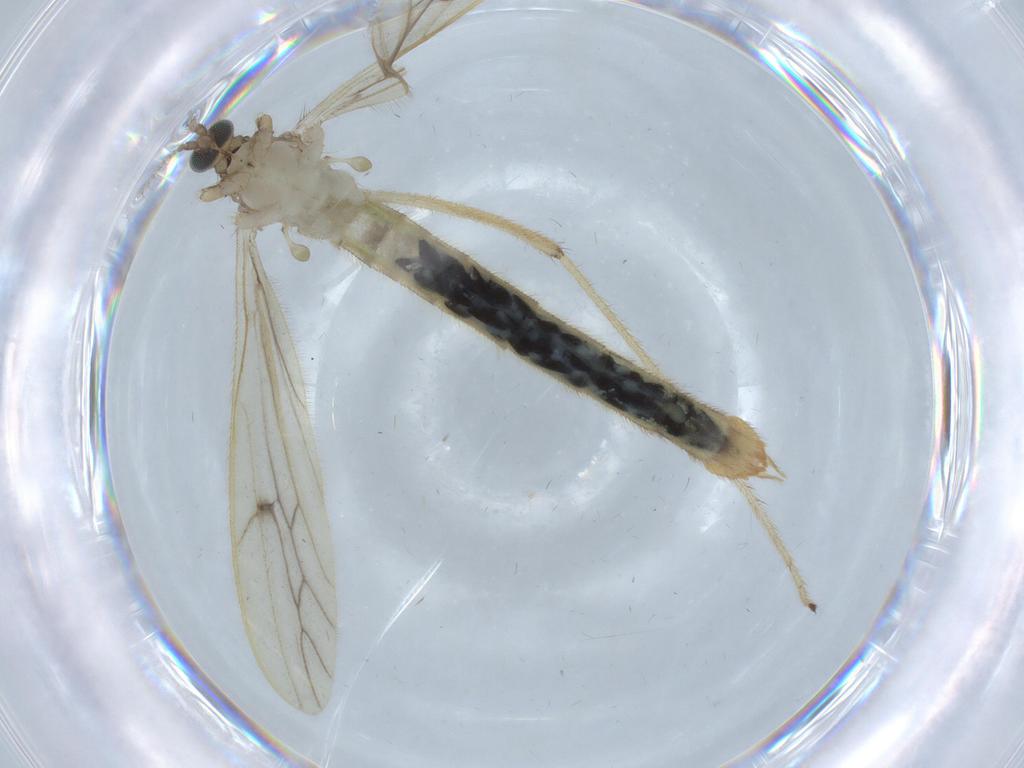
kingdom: Animalia
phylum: Arthropoda
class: Insecta
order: Diptera
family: Limoniidae
